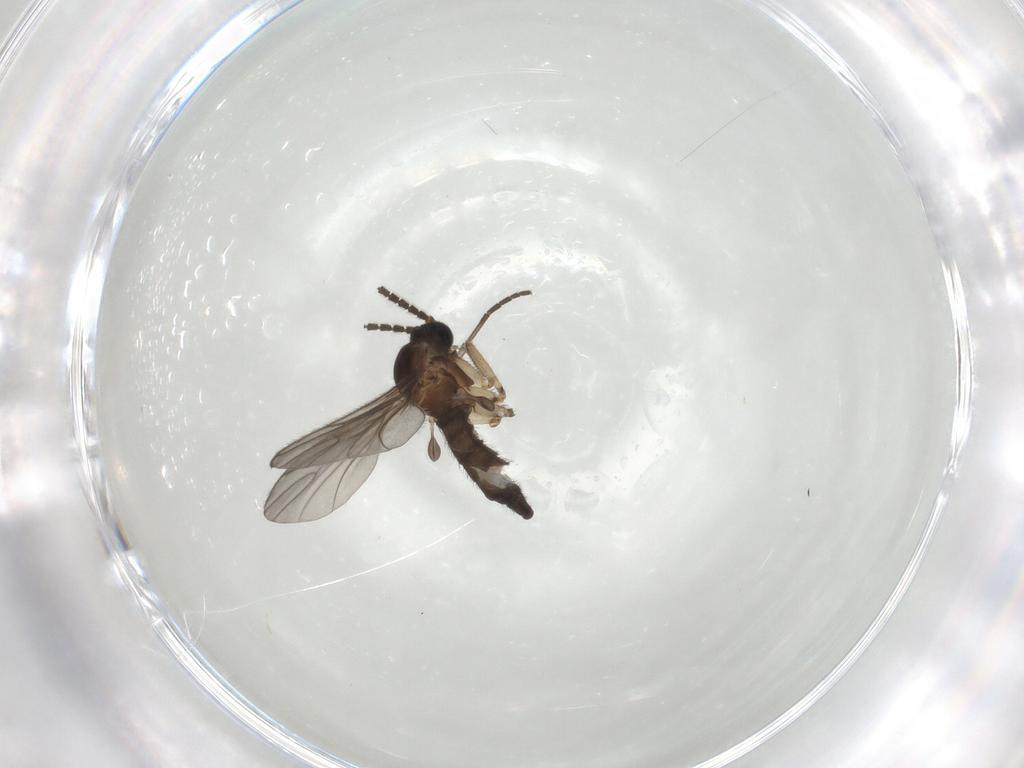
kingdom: Animalia
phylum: Arthropoda
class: Insecta
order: Diptera
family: Sciaridae
